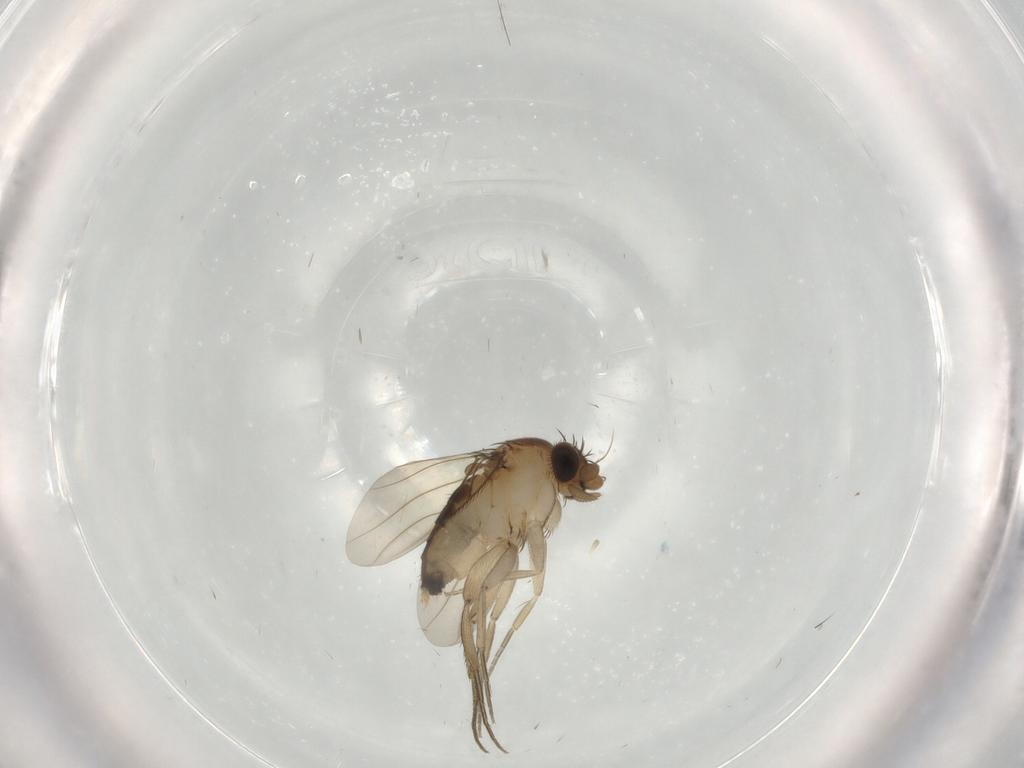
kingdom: Animalia
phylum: Arthropoda
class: Insecta
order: Diptera
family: Phoridae
